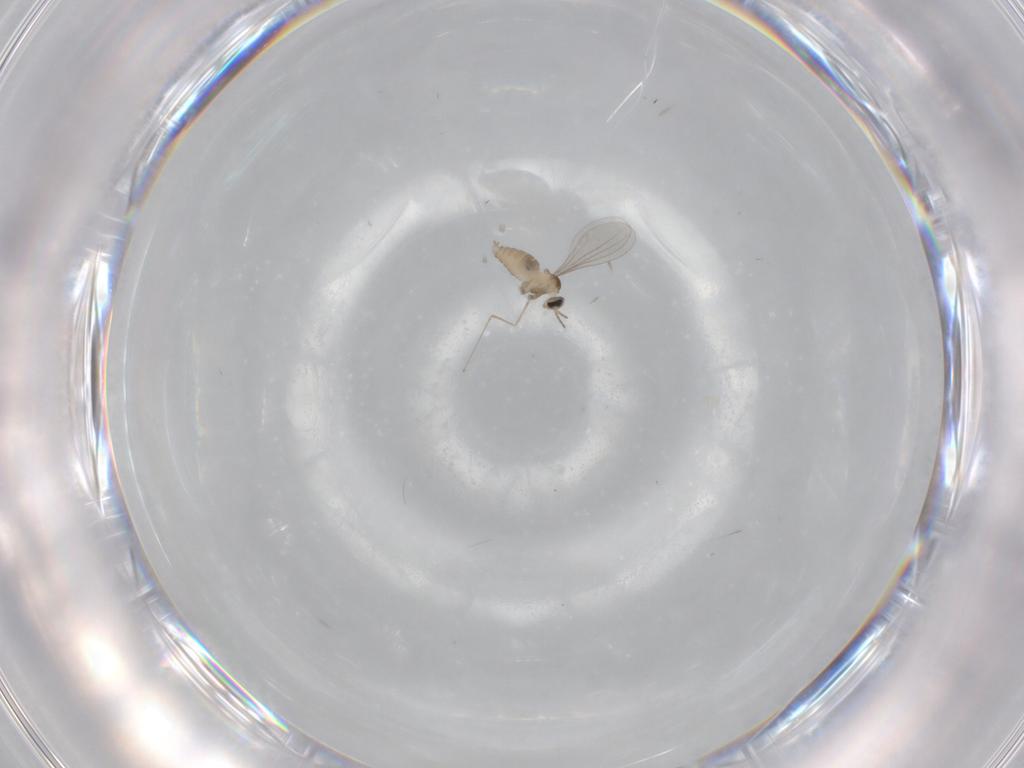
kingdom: Animalia
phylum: Arthropoda
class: Insecta
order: Diptera
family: Cecidomyiidae
